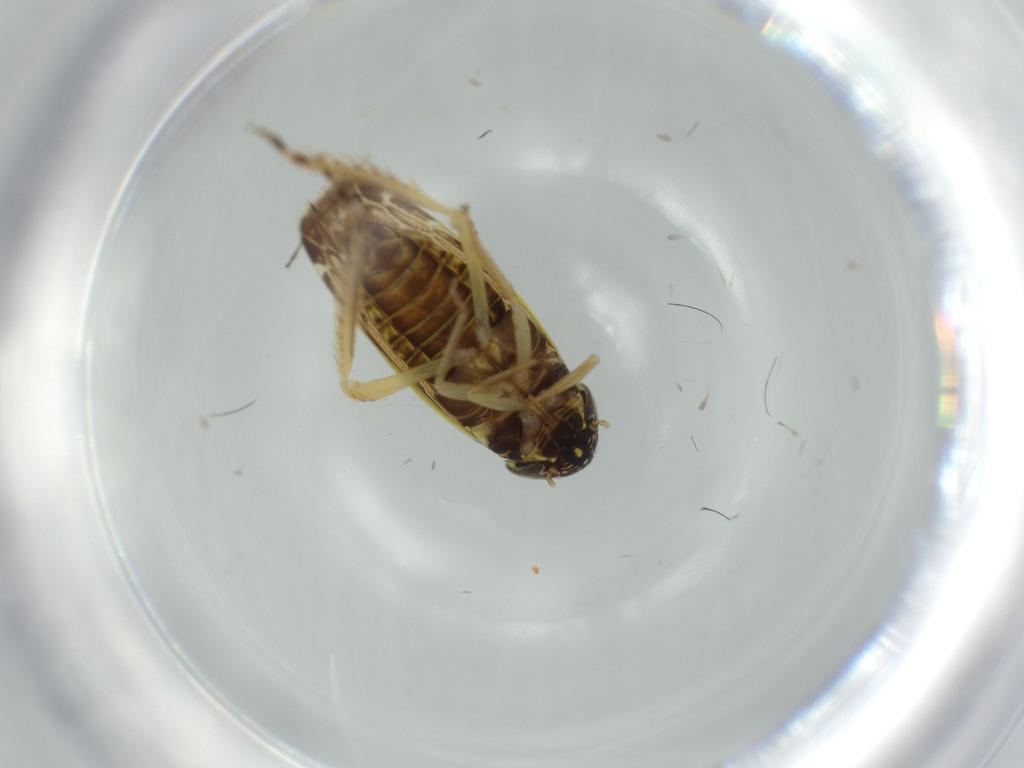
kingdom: Animalia
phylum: Arthropoda
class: Insecta
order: Hemiptera
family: Cicadellidae
